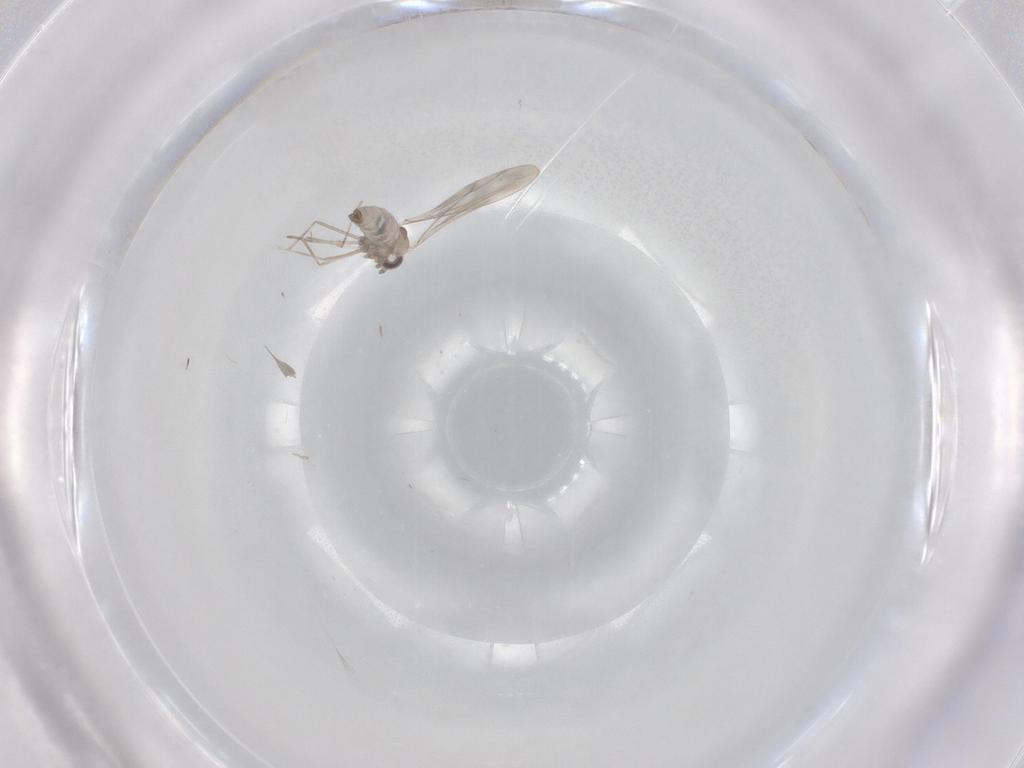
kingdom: Animalia
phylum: Arthropoda
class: Insecta
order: Diptera
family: Cecidomyiidae
